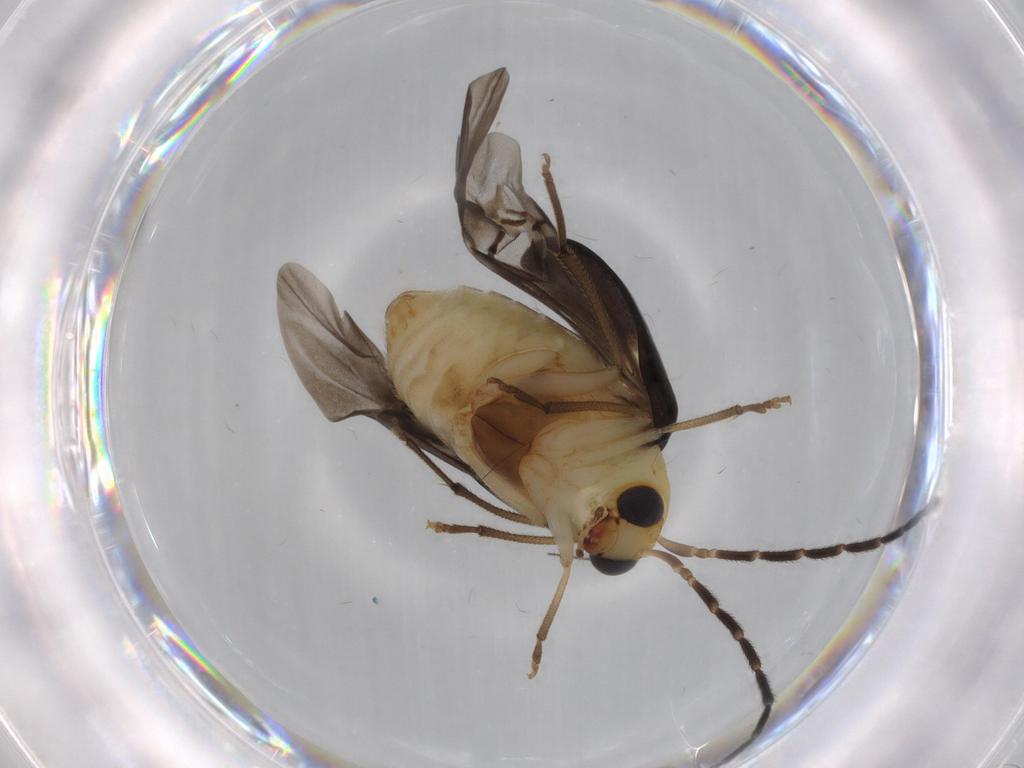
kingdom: Animalia
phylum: Arthropoda
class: Insecta
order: Coleoptera
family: Chrysomelidae
